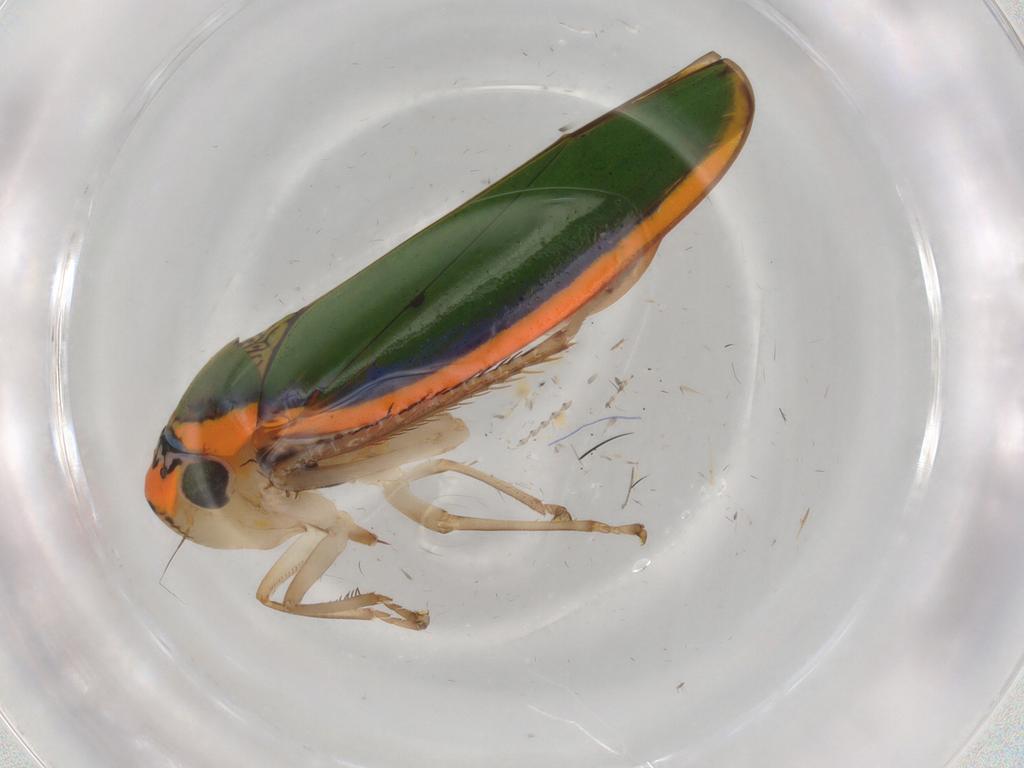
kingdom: Animalia
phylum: Arthropoda
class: Insecta
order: Hemiptera
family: Cicadellidae
